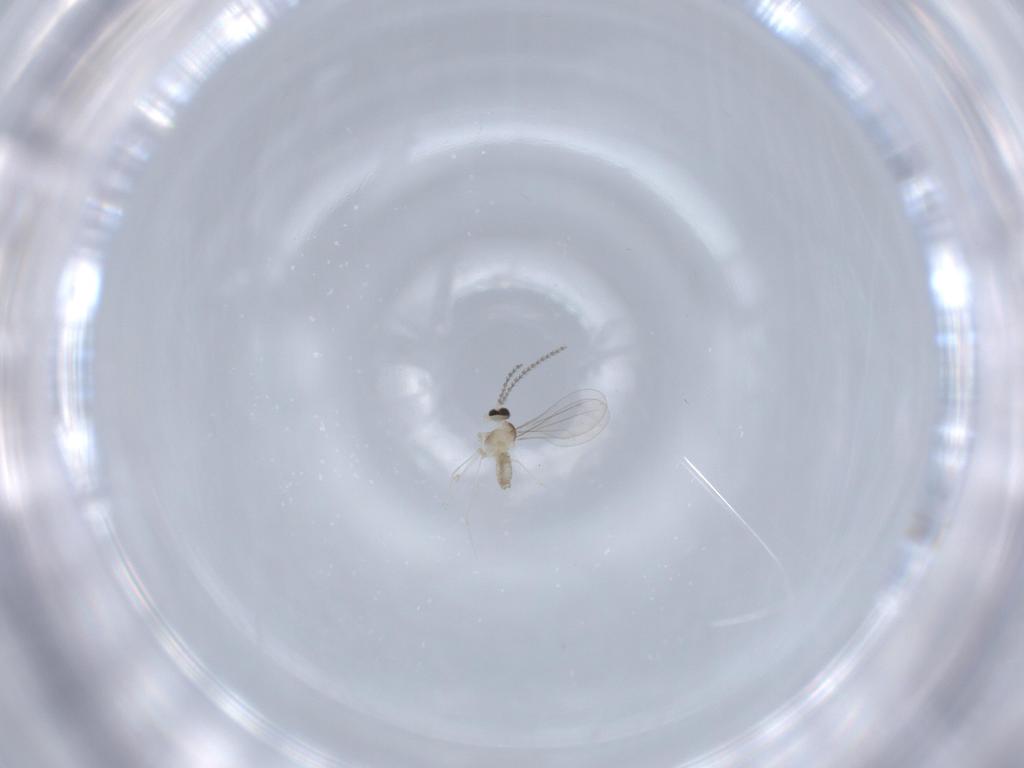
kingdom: Animalia
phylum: Arthropoda
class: Insecta
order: Diptera
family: Cecidomyiidae
